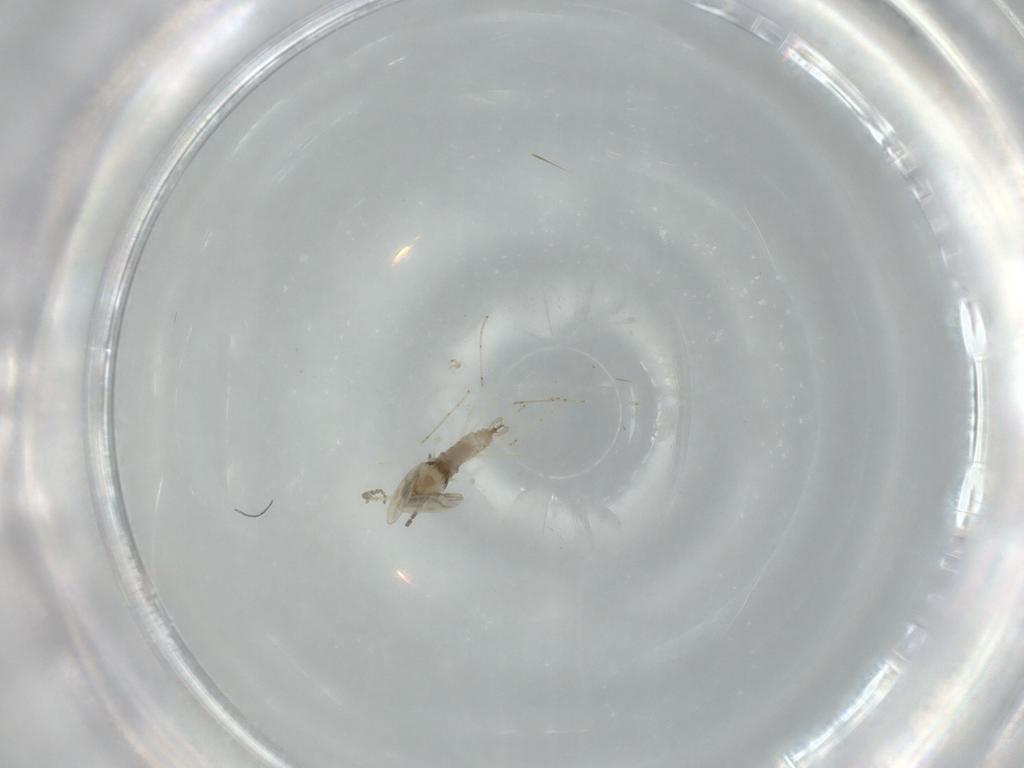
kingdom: Animalia
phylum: Arthropoda
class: Insecta
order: Diptera
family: Cecidomyiidae
